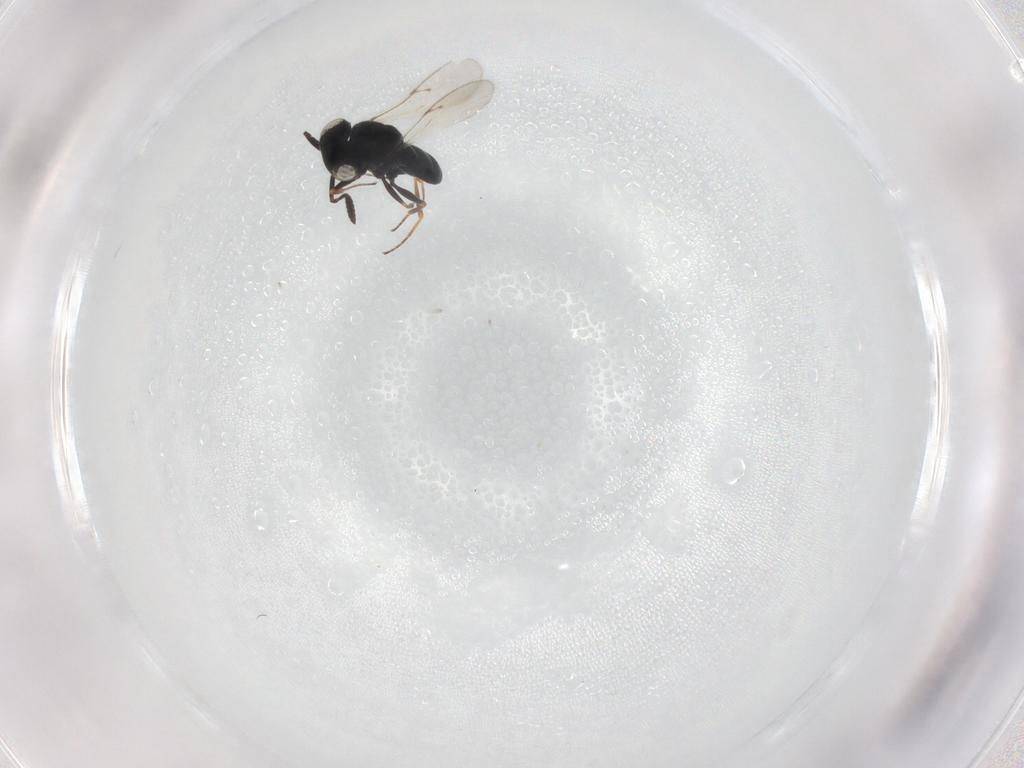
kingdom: Animalia
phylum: Arthropoda
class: Insecta
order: Hymenoptera
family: Scelionidae
